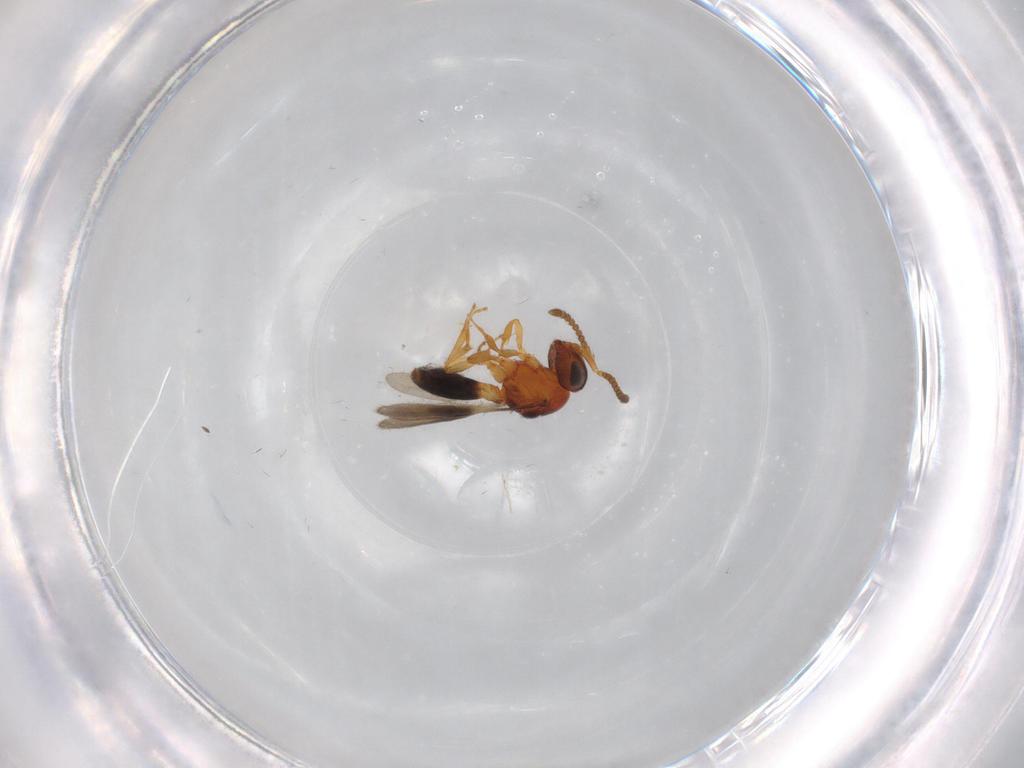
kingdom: Animalia
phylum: Arthropoda
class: Insecta
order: Hymenoptera
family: Scelionidae
